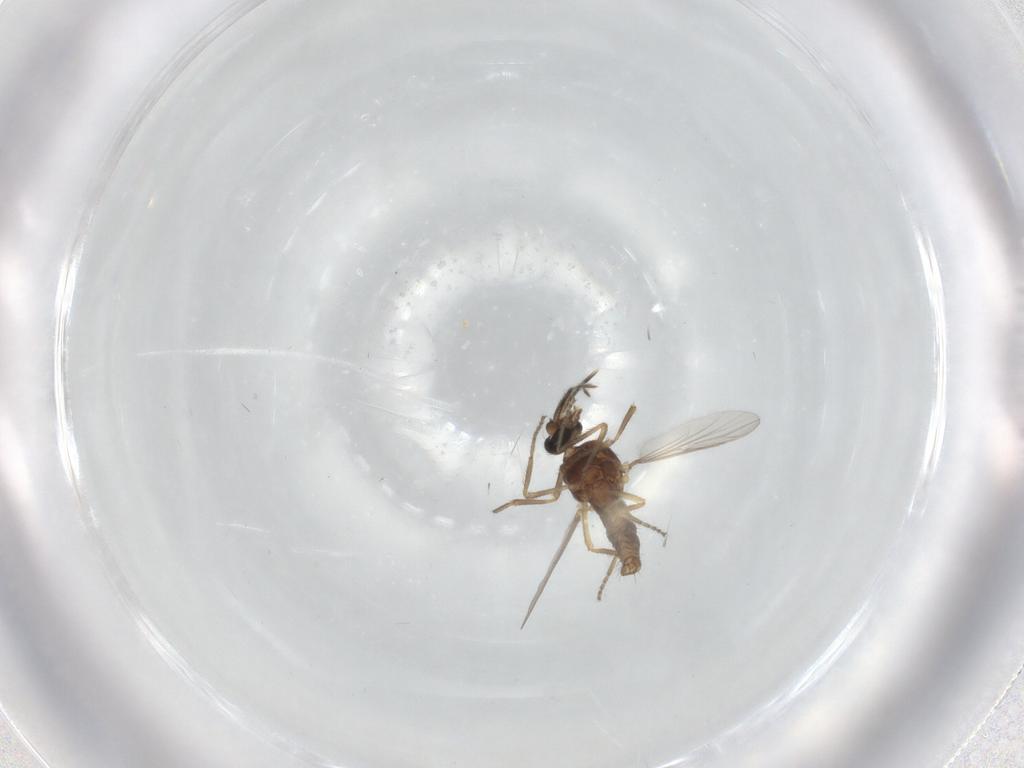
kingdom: Animalia
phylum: Arthropoda
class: Insecta
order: Diptera
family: Ceratopogonidae
